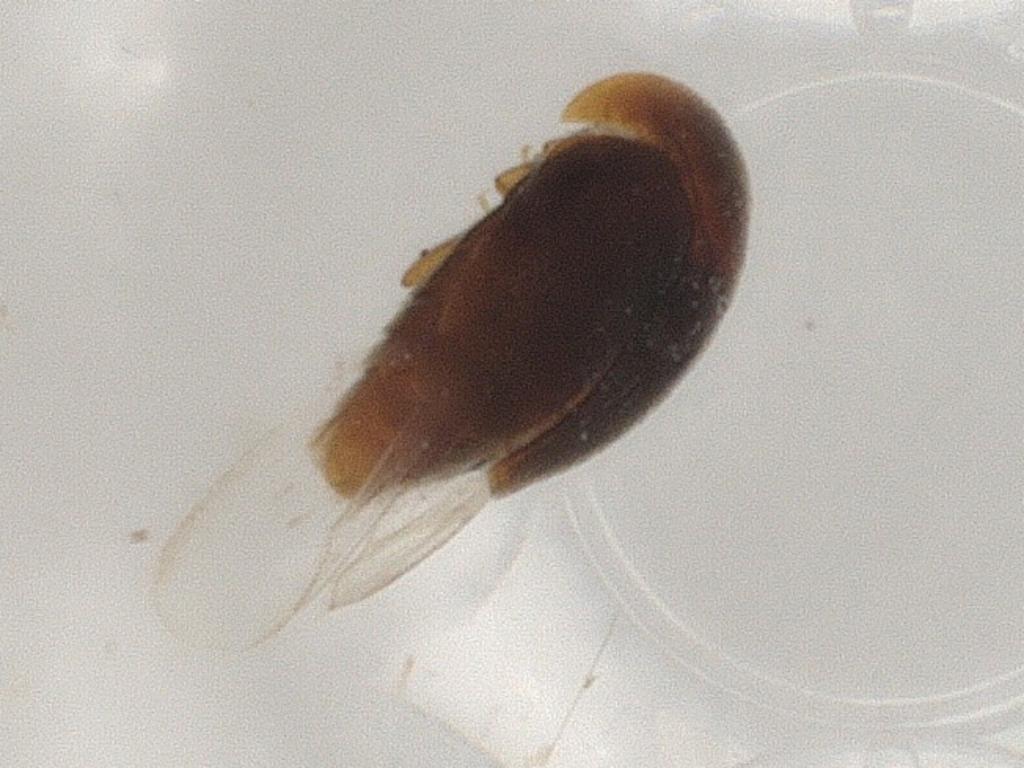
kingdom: Animalia
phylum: Arthropoda
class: Insecta
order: Coleoptera
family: Corylophidae
